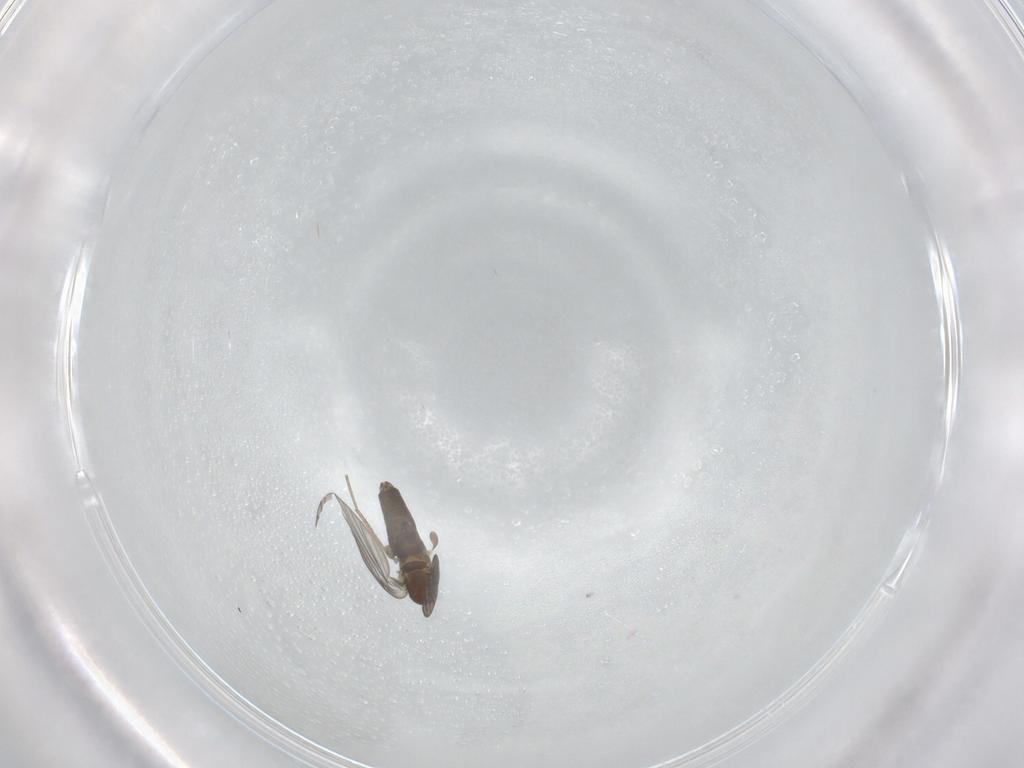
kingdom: Animalia
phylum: Arthropoda
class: Insecta
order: Diptera
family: Psychodidae
